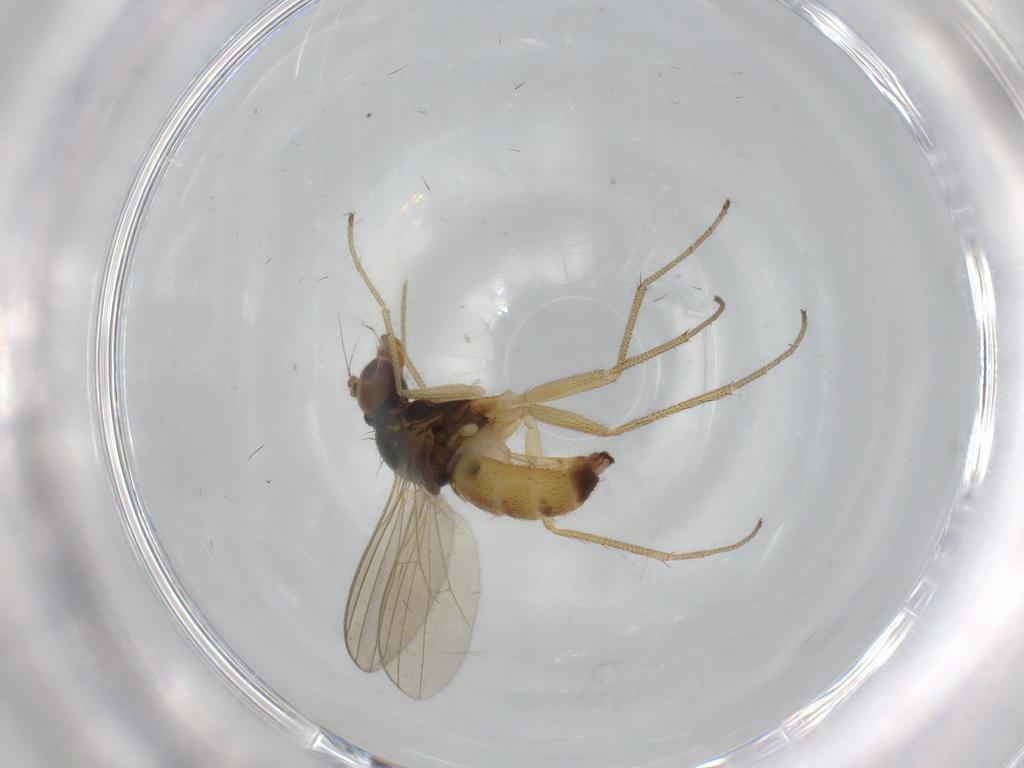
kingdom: Animalia
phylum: Arthropoda
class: Insecta
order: Diptera
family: Dolichopodidae
